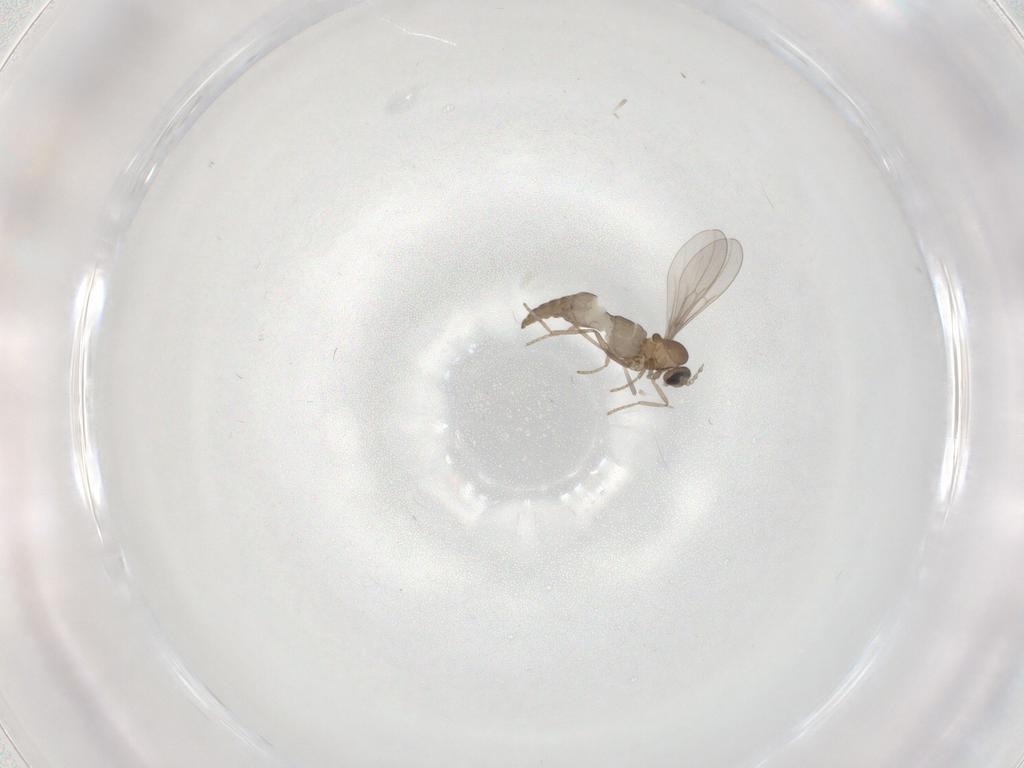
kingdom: Animalia
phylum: Arthropoda
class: Insecta
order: Diptera
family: Cecidomyiidae
